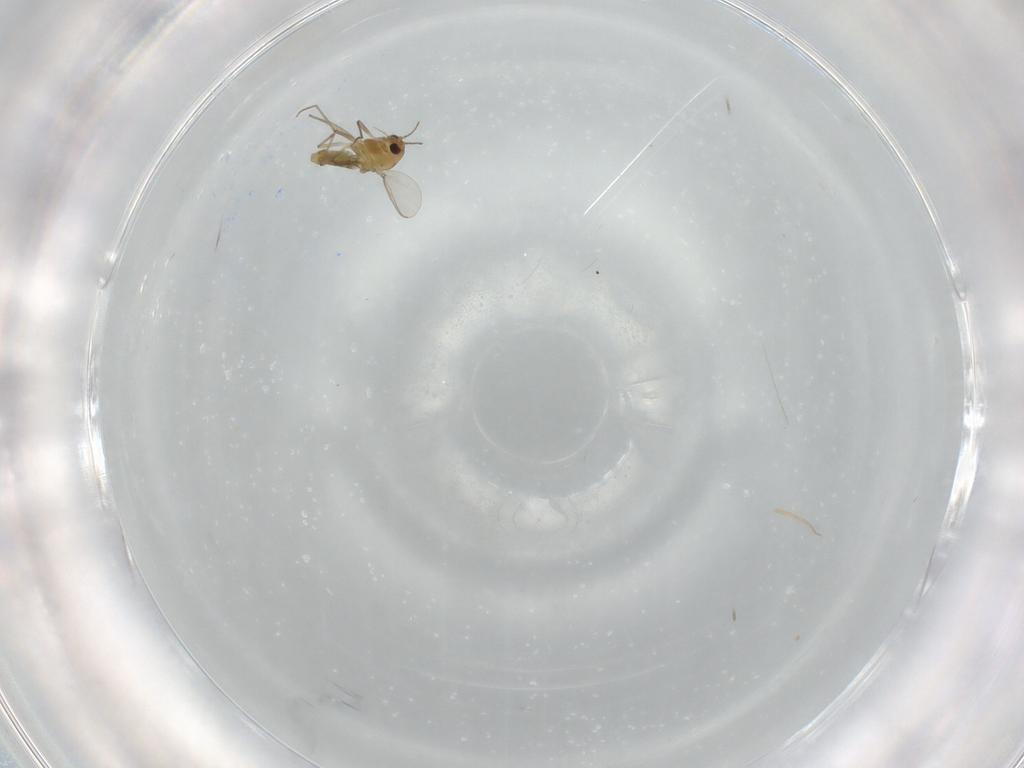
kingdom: Animalia
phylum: Arthropoda
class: Insecta
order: Diptera
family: Chironomidae
